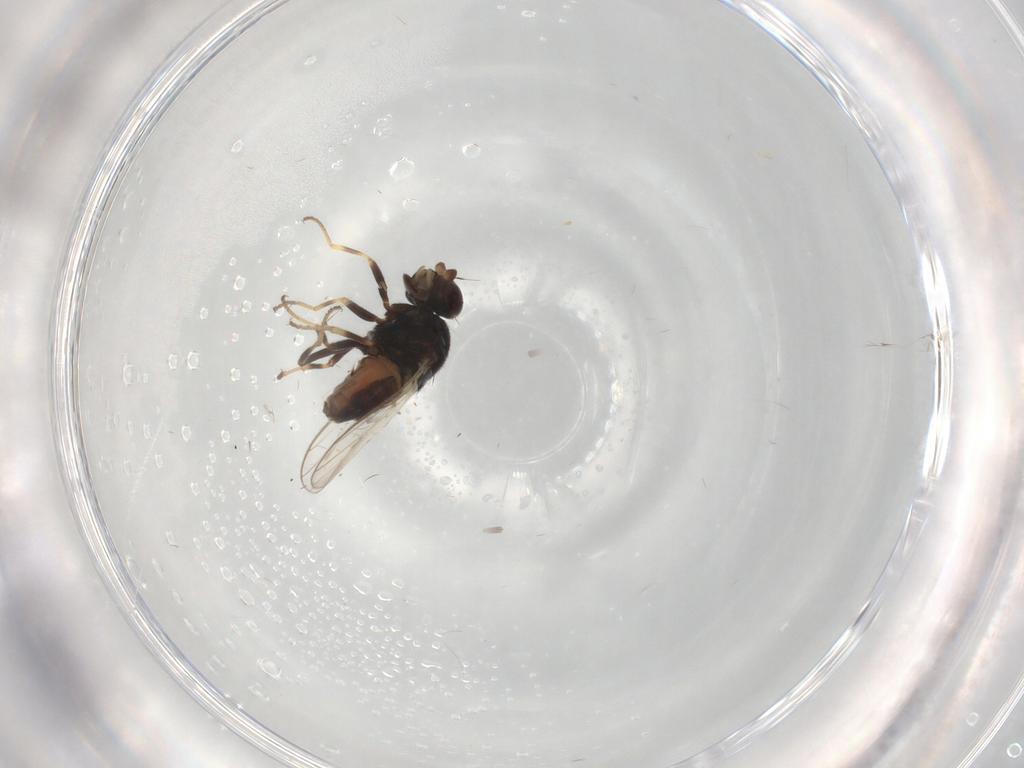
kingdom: Animalia
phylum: Arthropoda
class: Insecta
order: Diptera
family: Chloropidae
